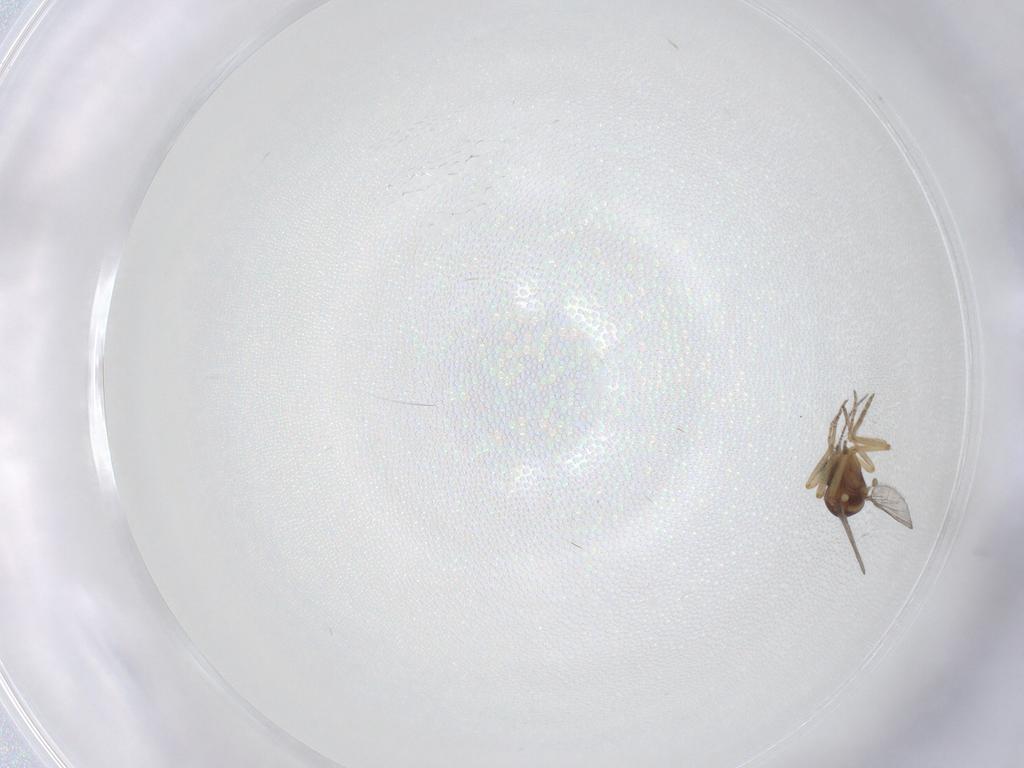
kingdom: Animalia
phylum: Arthropoda
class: Insecta
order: Diptera
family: Ceratopogonidae
